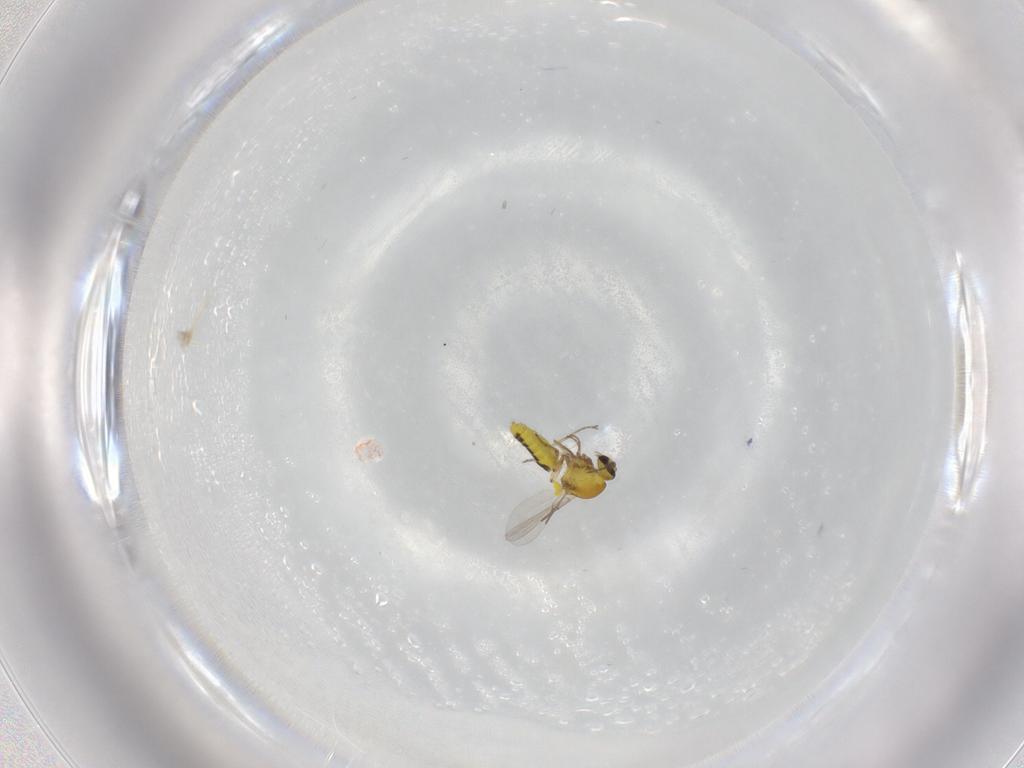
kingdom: Animalia
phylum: Arthropoda
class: Insecta
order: Diptera
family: Ceratopogonidae
